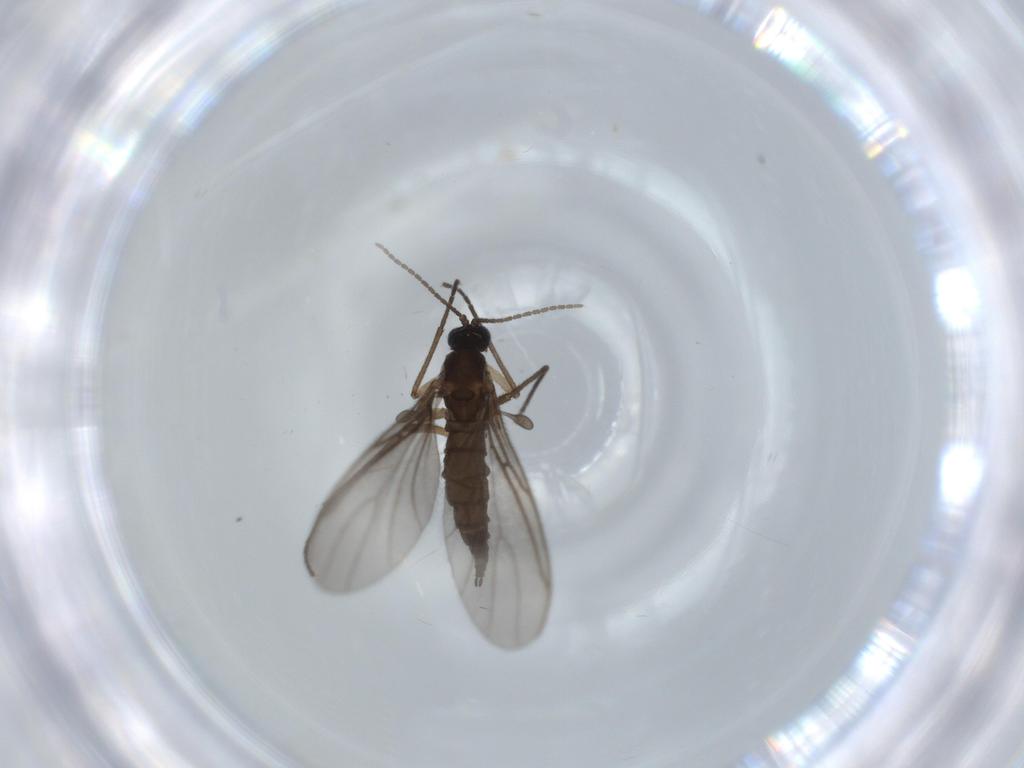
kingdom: Animalia
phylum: Arthropoda
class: Insecta
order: Diptera
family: Sciaridae
